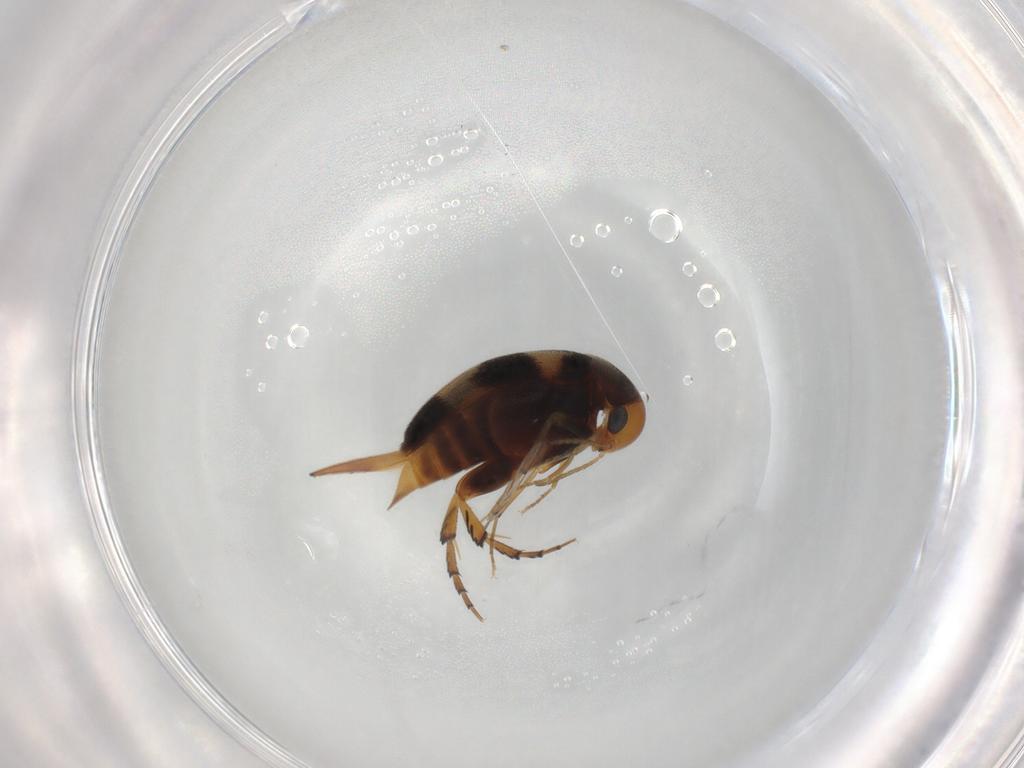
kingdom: Animalia
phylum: Arthropoda
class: Insecta
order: Coleoptera
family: Mordellidae
